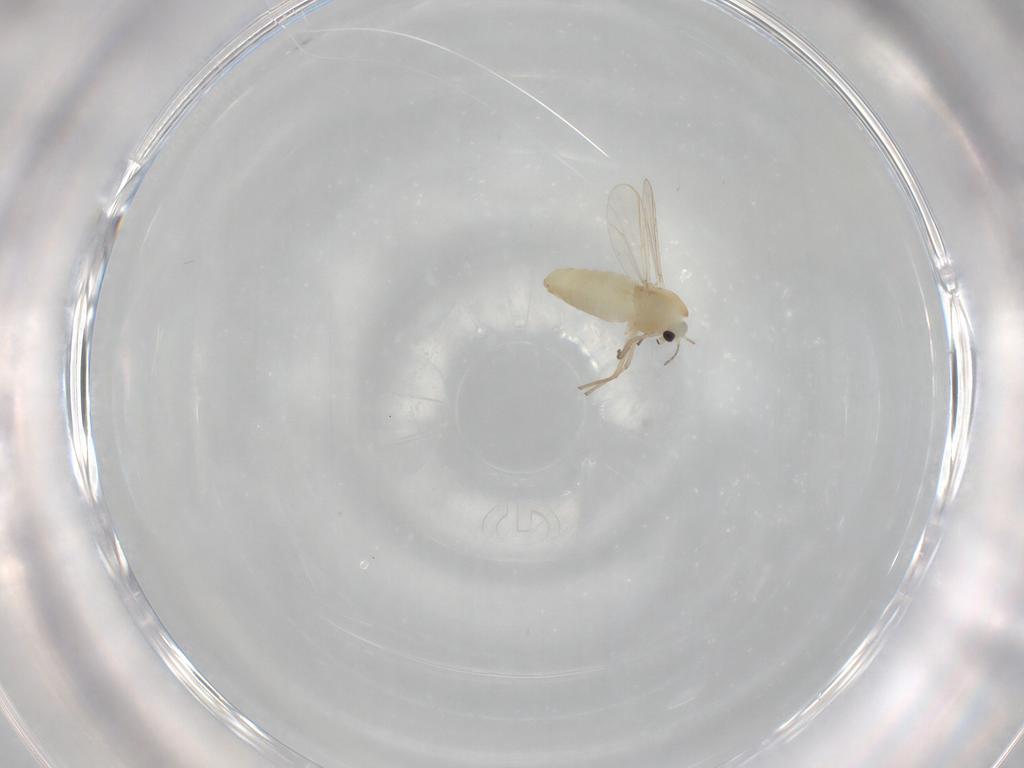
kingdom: Animalia
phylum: Arthropoda
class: Insecta
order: Diptera
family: Chironomidae
